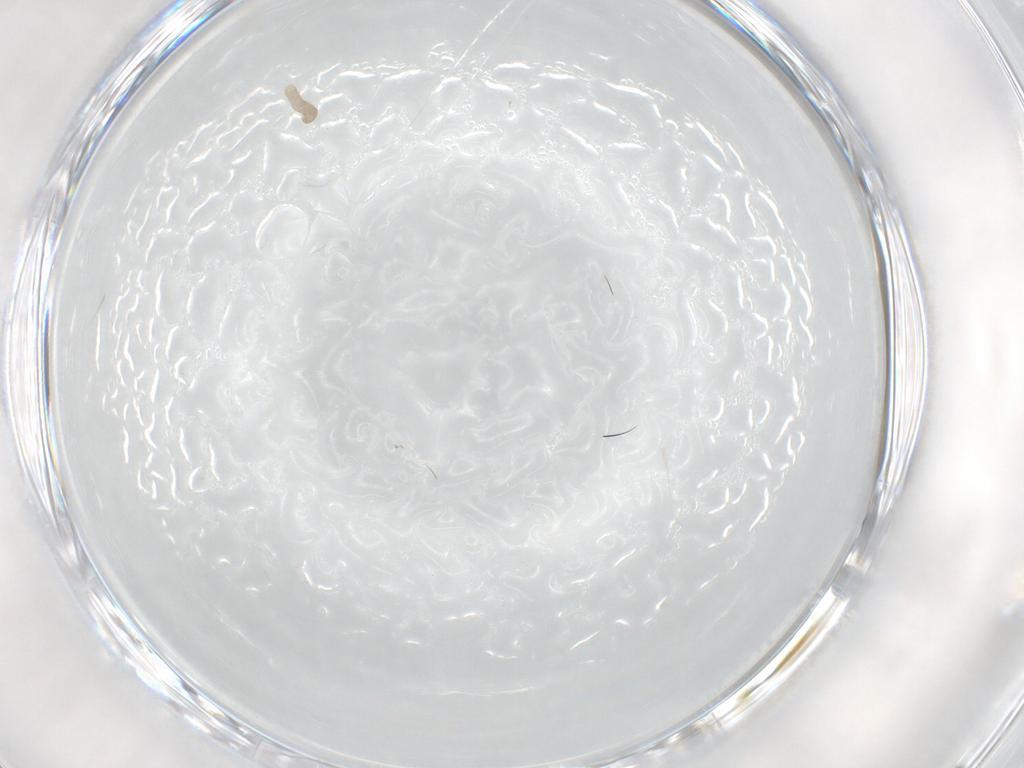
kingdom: Animalia
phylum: Arthropoda
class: Insecta
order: Lepidoptera
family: Tineidae
